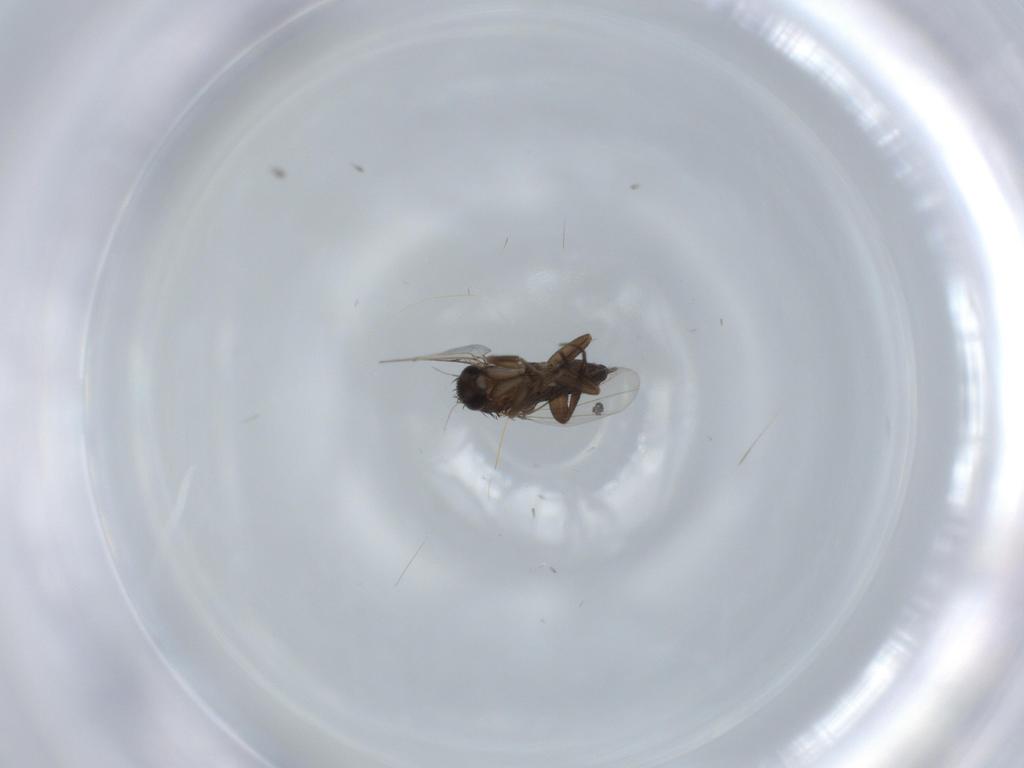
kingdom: Animalia
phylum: Arthropoda
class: Insecta
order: Diptera
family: Phoridae
